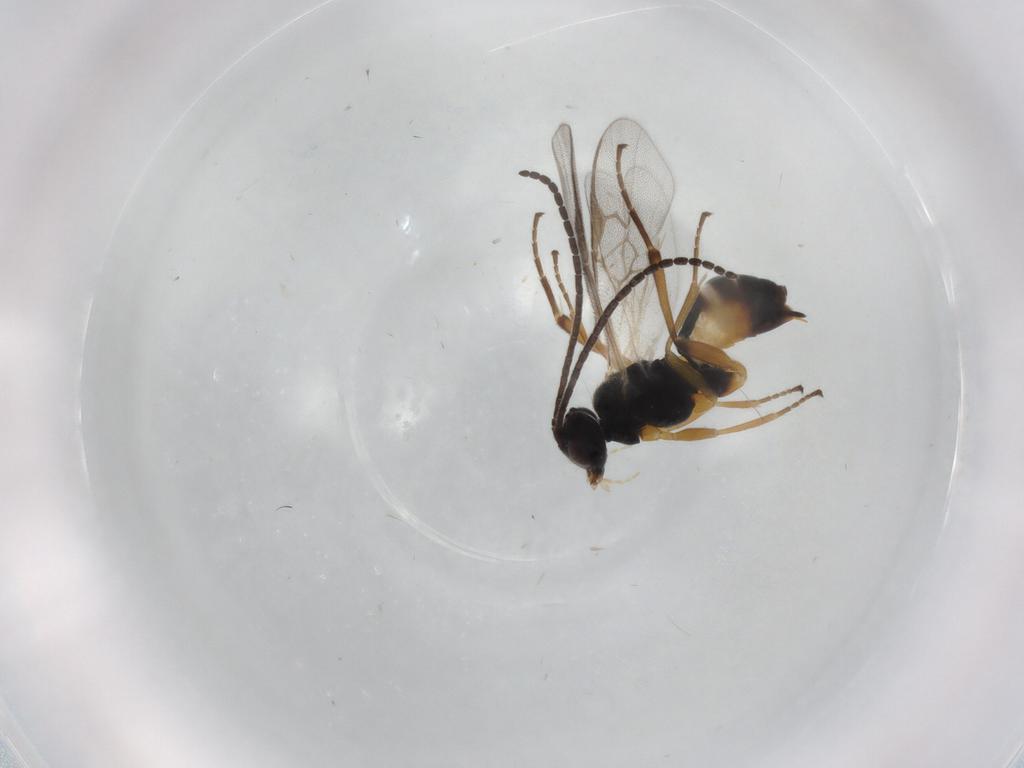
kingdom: Animalia
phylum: Arthropoda
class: Insecta
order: Hymenoptera
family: Braconidae
